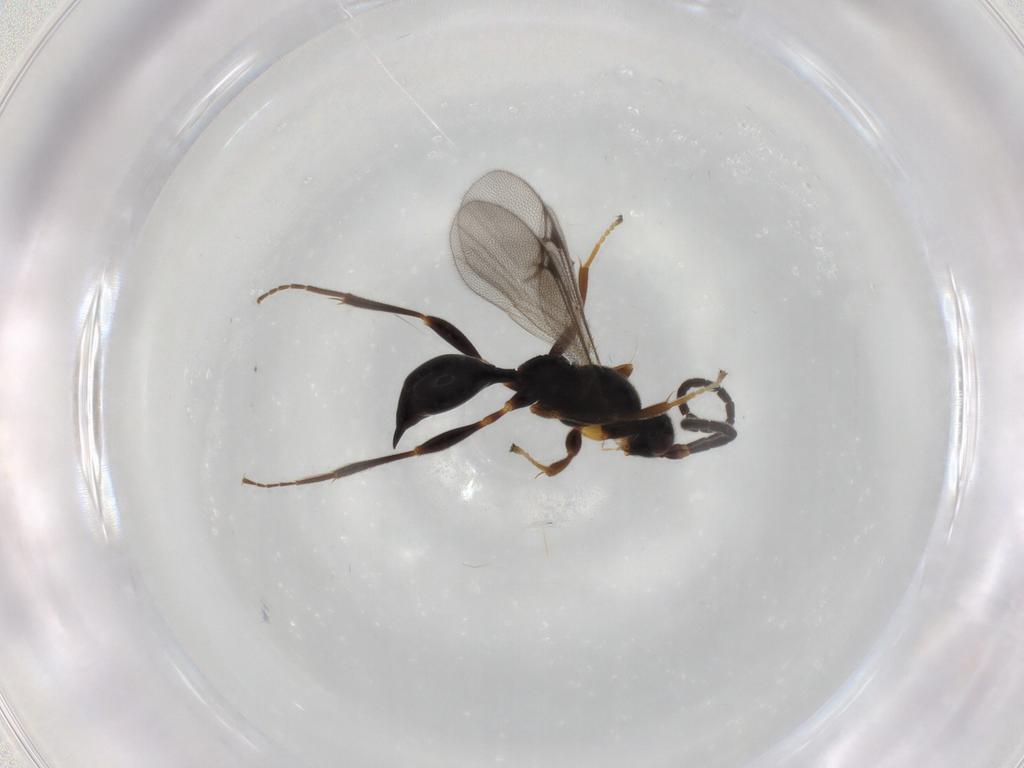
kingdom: Animalia
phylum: Arthropoda
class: Insecta
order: Hymenoptera
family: Proctotrupidae
